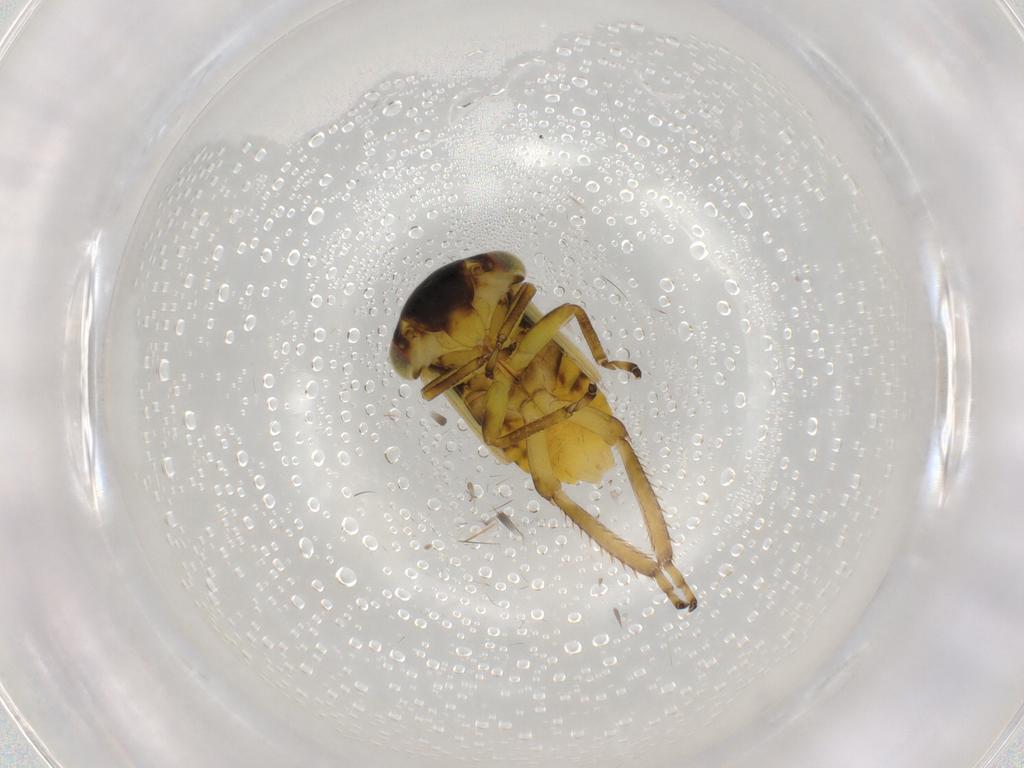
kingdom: Animalia
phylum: Arthropoda
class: Insecta
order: Hemiptera
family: Cicadellidae
